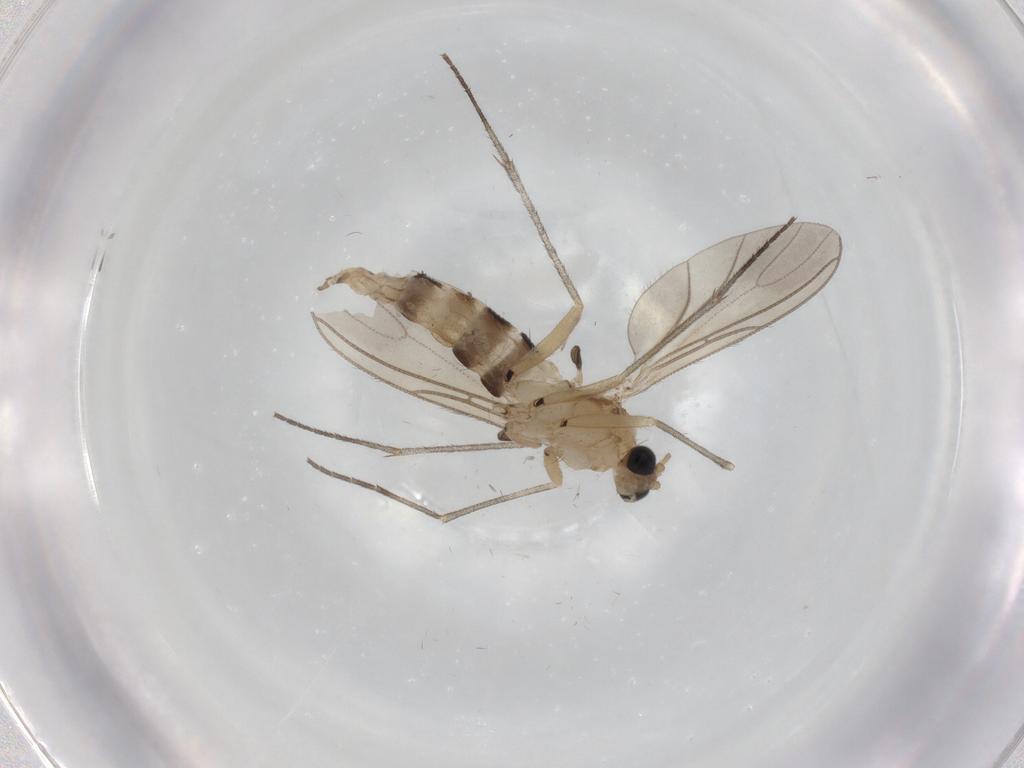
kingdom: Animalia
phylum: Arthropoda
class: Insecta
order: Diptera
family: Phoridae
